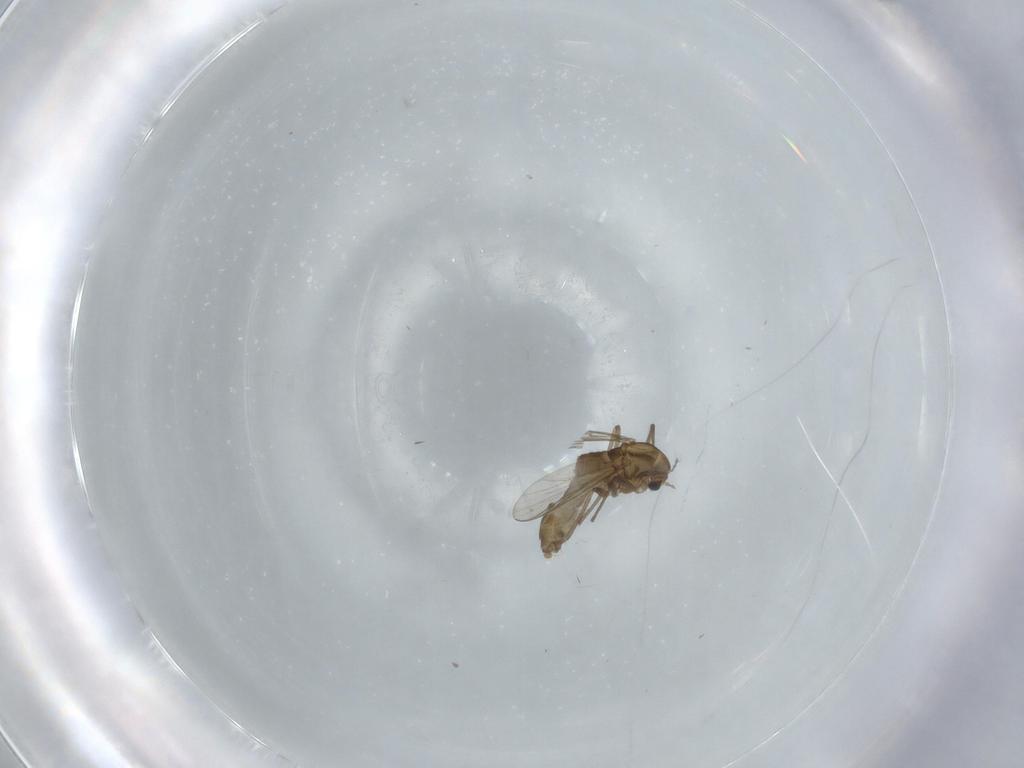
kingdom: Animalia
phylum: Arthropoda
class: Insecta
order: Diptera
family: Chironomidae
